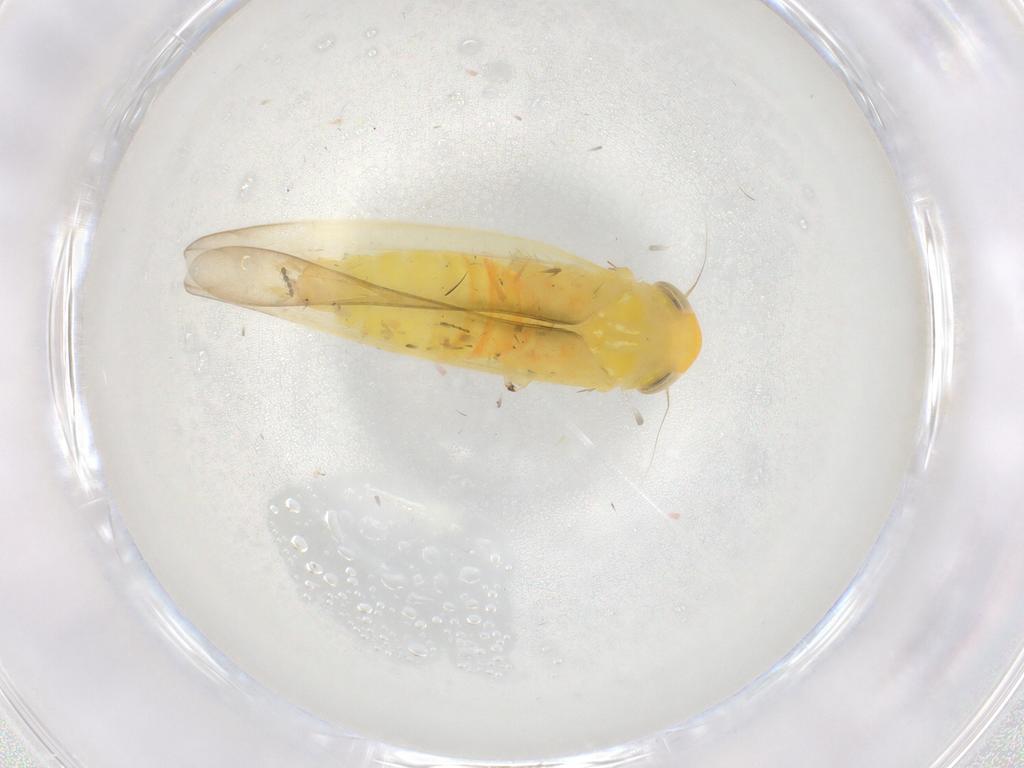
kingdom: Animalia
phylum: Arthropoda
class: Insecta
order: Hemiptera
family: Cicadellidae
